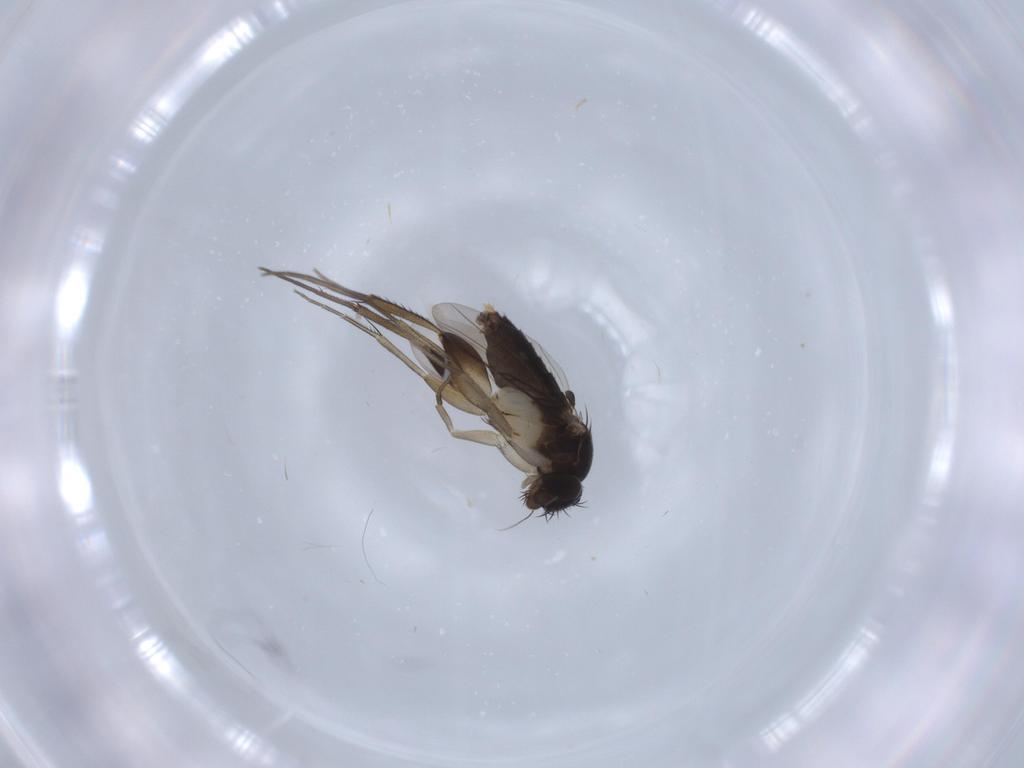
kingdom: Animalia
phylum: Arthropoda
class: Insecta
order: Diptera
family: Phoridae
